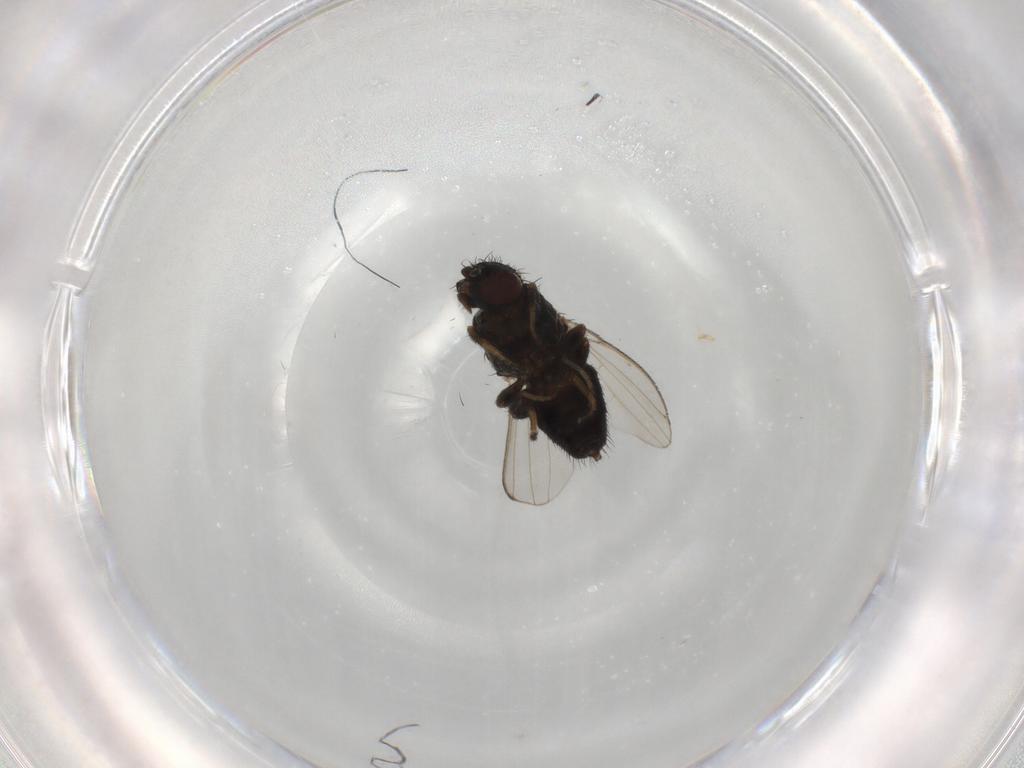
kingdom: Animalia
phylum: Arthropoda
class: Insecta
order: Diptera
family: Milichiidae
